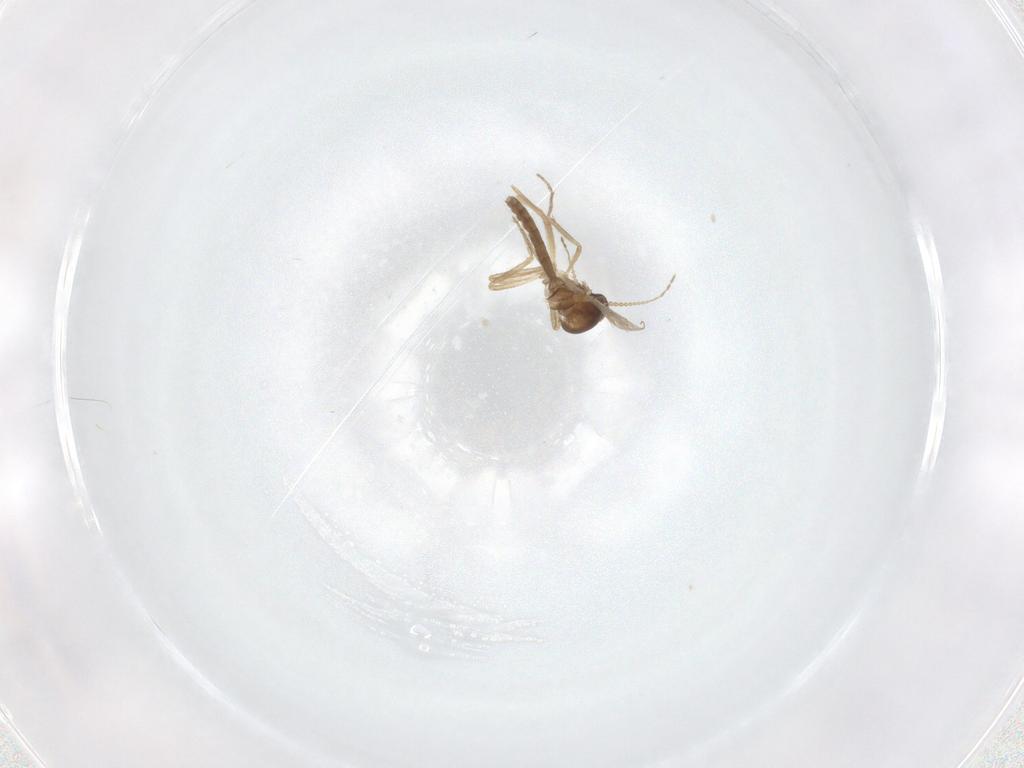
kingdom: Animalia
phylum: Arthropoda
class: Insecta
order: Diptera
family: Ceratopogonidae
